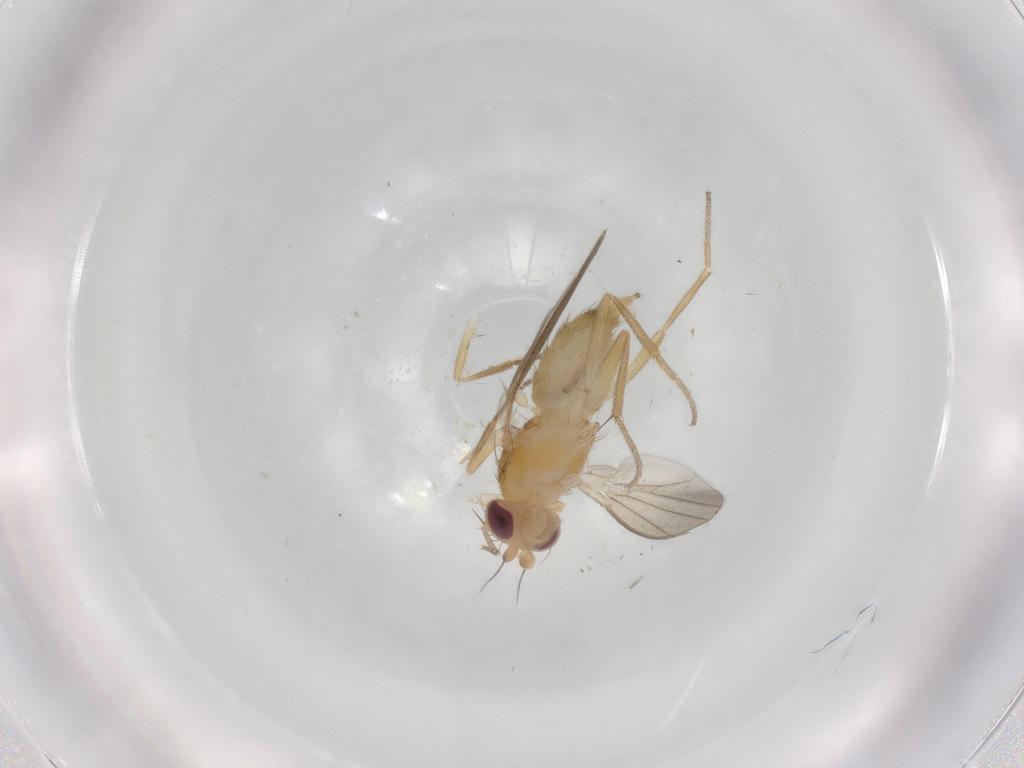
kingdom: Animalia
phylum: Arthropoda
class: Insecta
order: Diptera
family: Clusiidae
